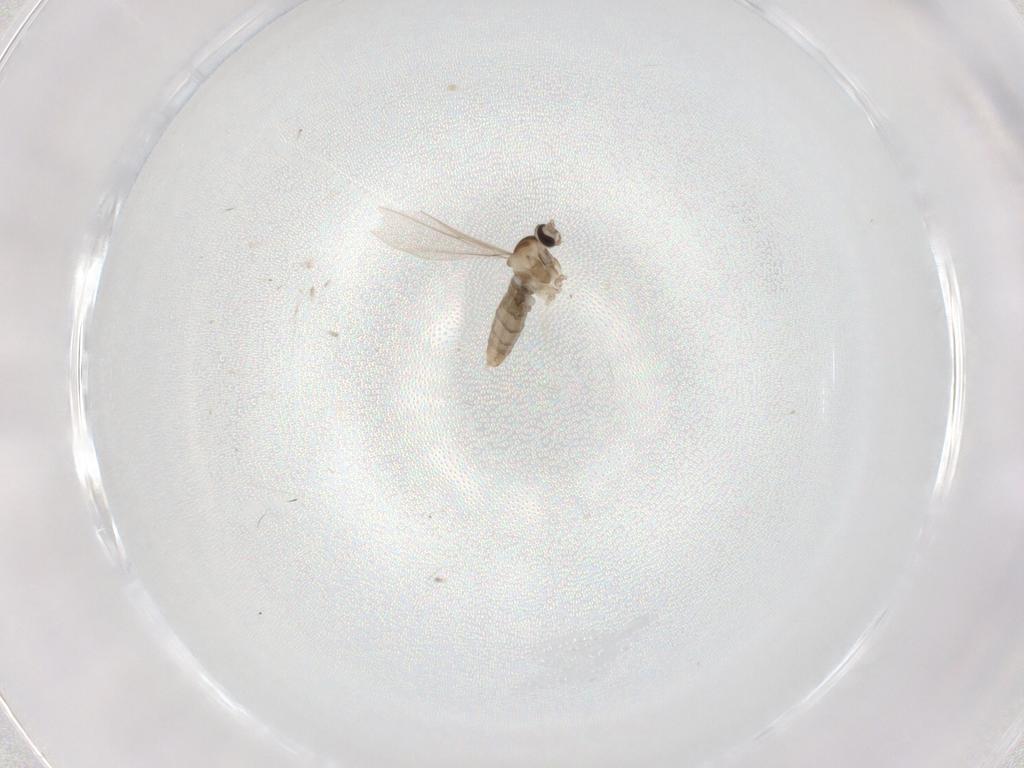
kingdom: Animalia
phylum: Arthropoda
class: Insecta
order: Diptera
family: Cecidomyiidae
